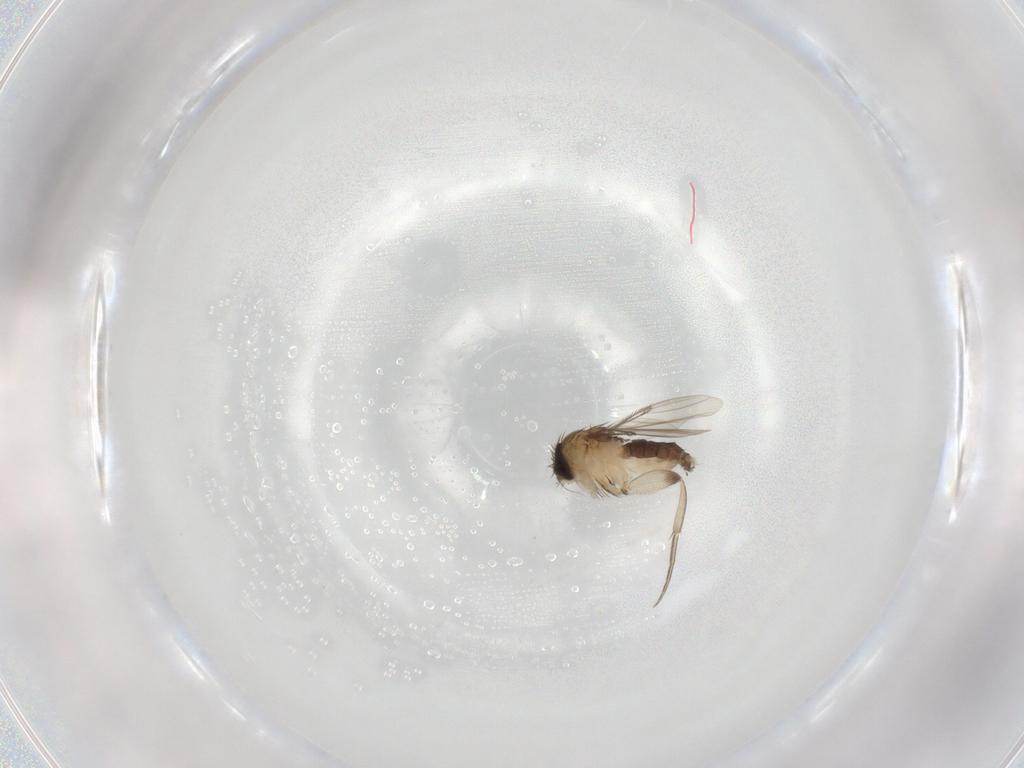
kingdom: Animalia
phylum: Arthropoda
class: Insecta
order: Diptera
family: Phoridae
